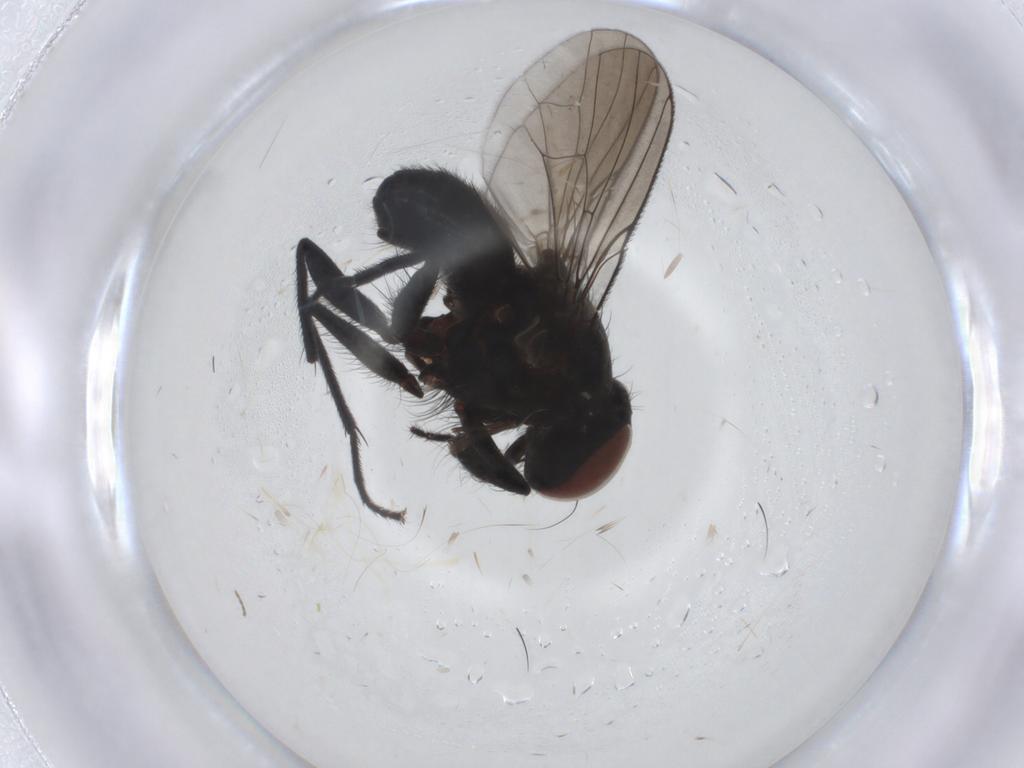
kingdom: Animalia
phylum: Arthropoda
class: Insecta
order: Diptera
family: Muscidae
